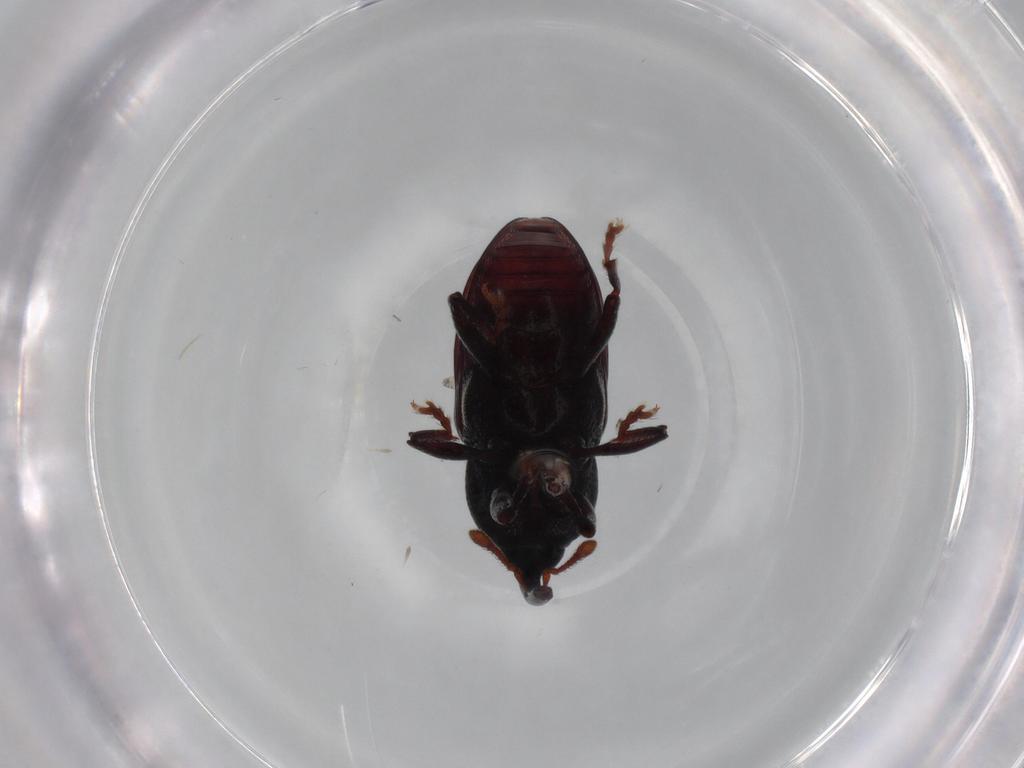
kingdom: Animalia
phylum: Arthropoda
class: Insecta
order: Coleoptera
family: Curculionidae
